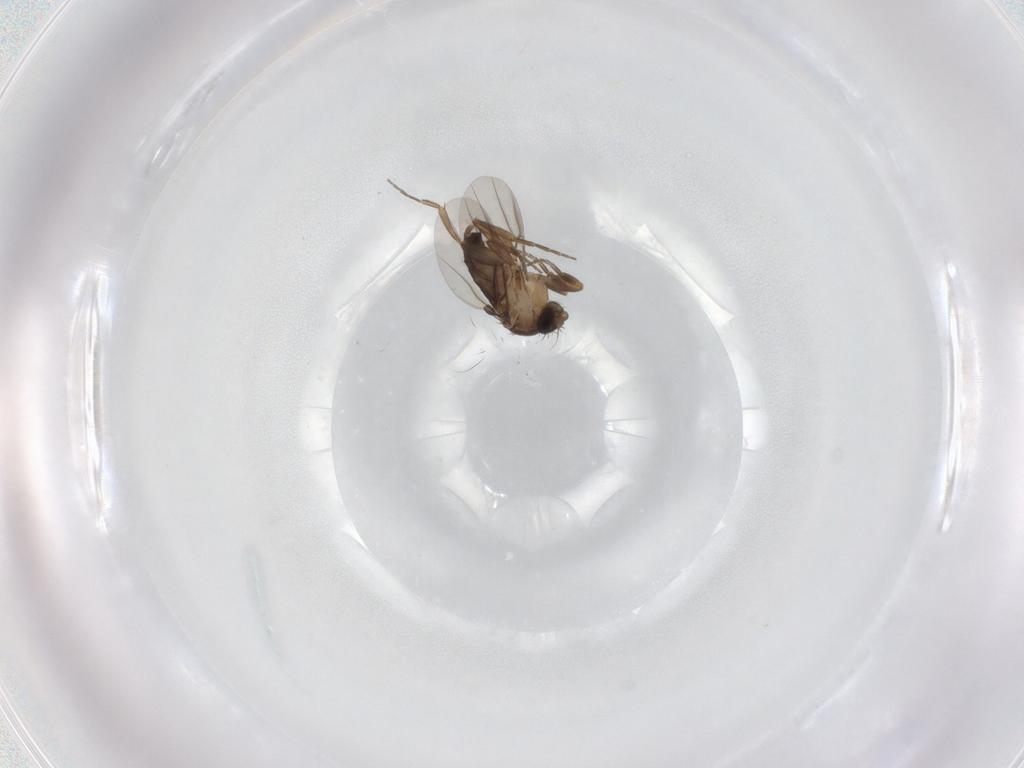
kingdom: Animalia
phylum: Arthropoda
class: Insecta
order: Diptera
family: Phoridae
